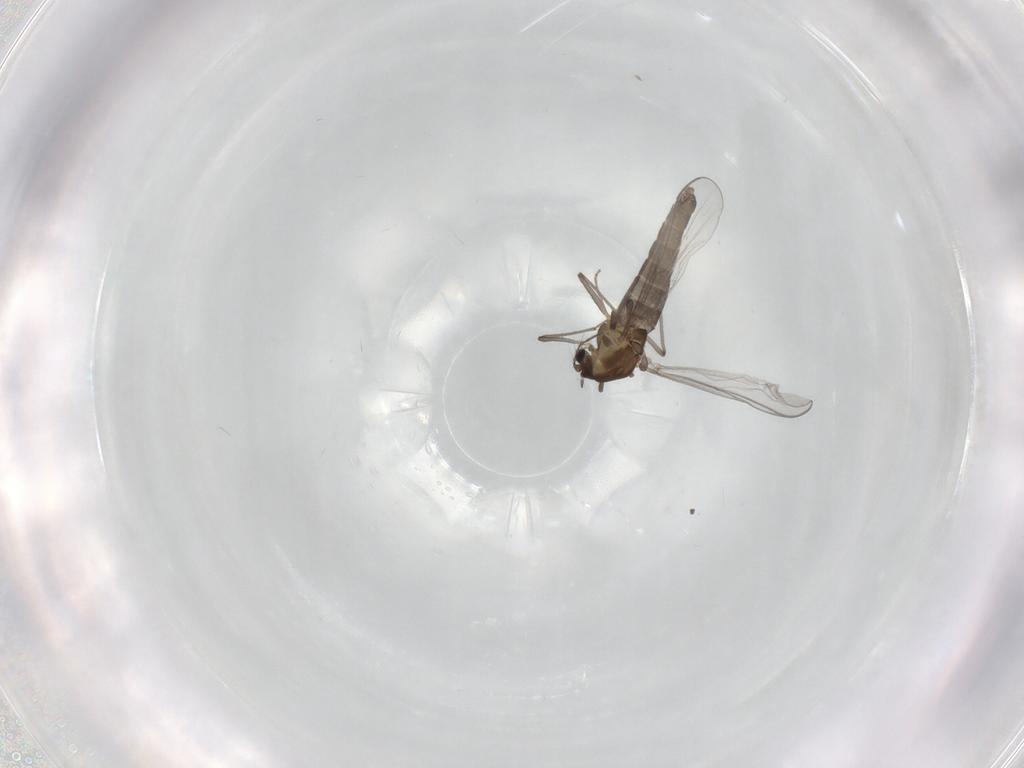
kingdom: Animalia
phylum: Arthropoda
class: Insecta
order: Diptera
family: Chironomidae
